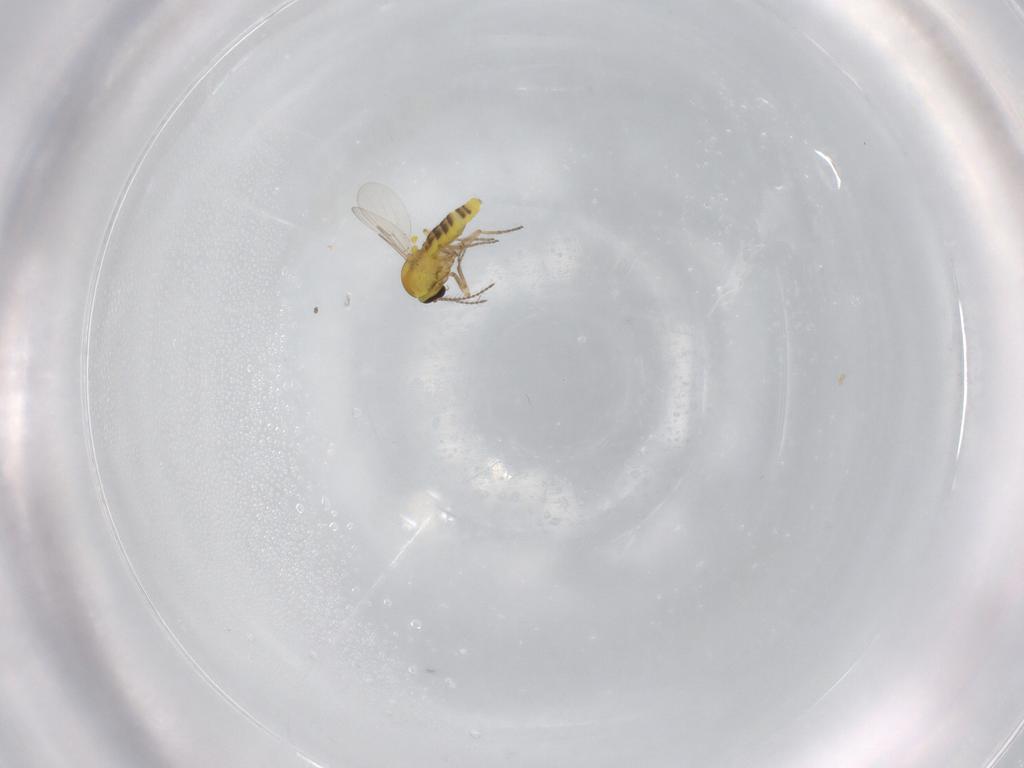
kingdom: Animalia
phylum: Arthropoda
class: Insecta
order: Diptera
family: Ceratopogonidae
